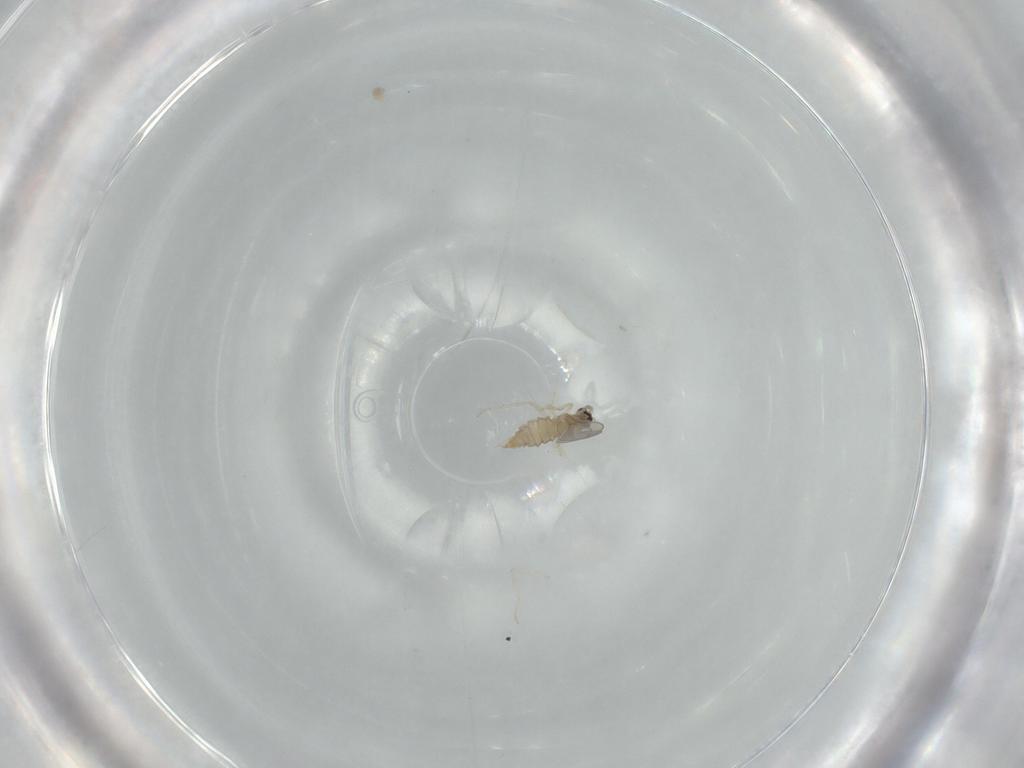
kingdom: Animalia
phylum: Arthropoda
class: Insecta
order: Diptera
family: Cecidomyiidae
